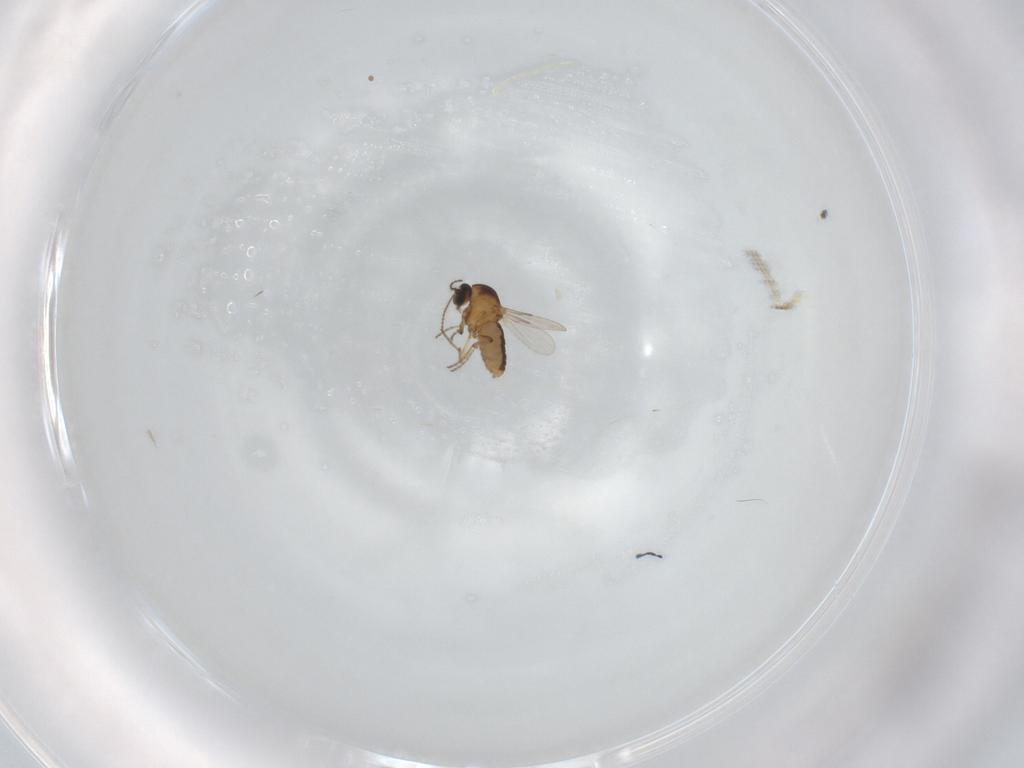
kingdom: Animalia
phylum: Arthropoda
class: Insecta
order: Diptera
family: Ceratopogonidae
